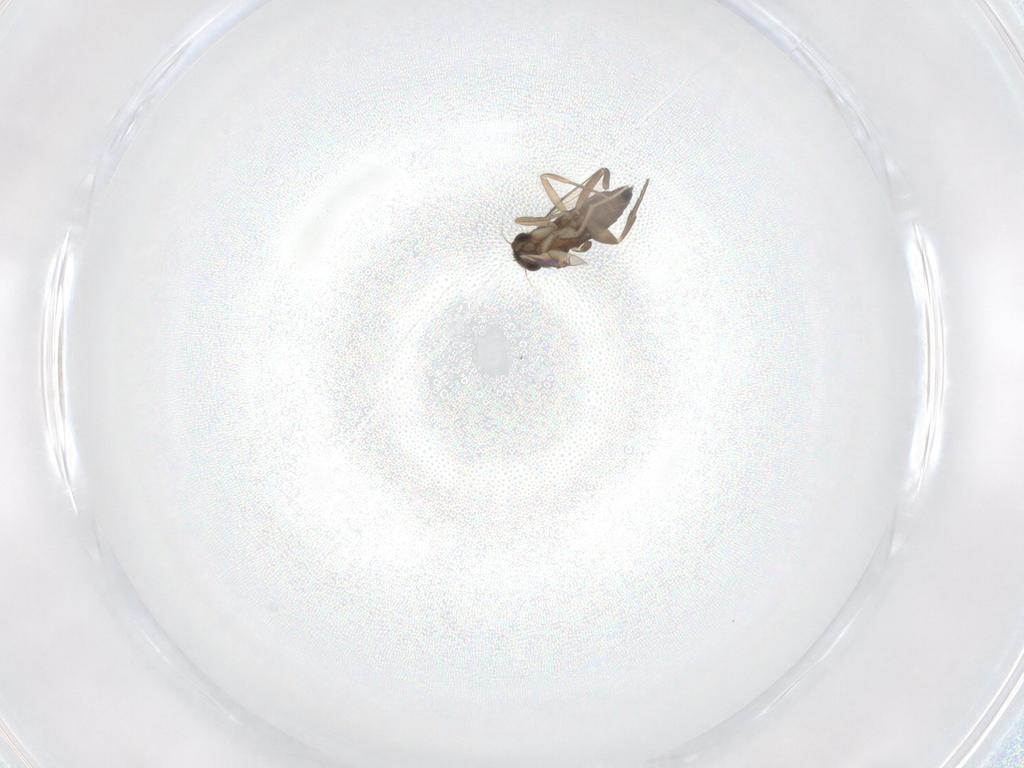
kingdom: Animalia
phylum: Arthropoda
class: Insecta
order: Diptera
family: Phoridae
